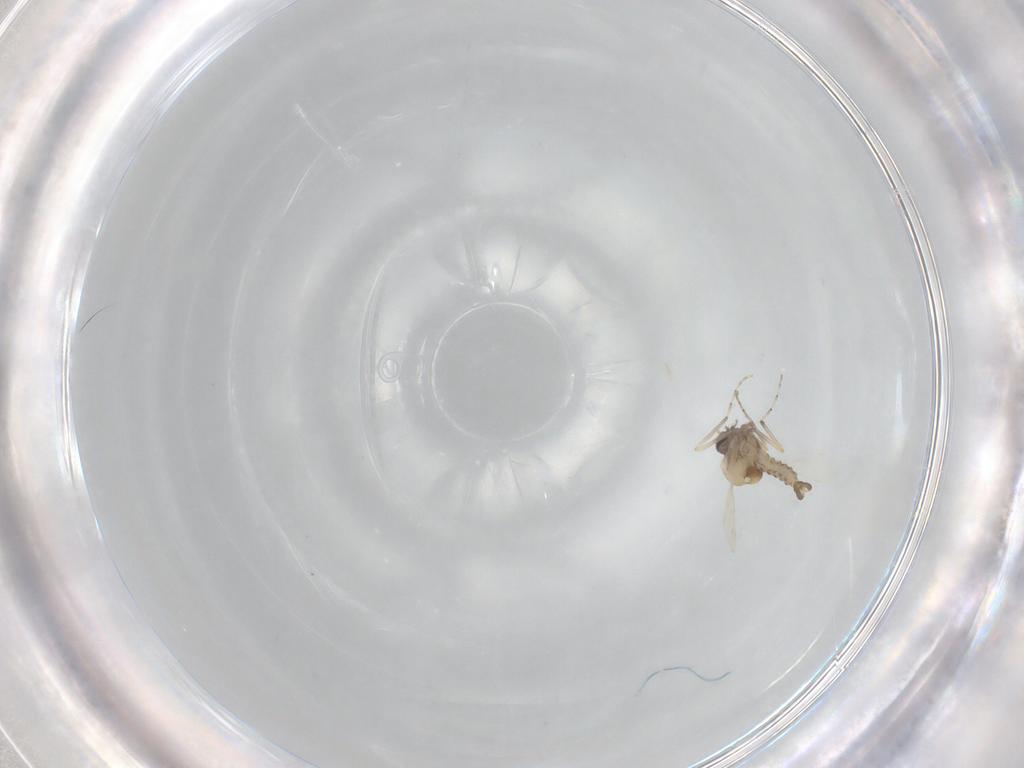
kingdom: Animalia
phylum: Arthropoda
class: Insecta
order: Diptera
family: Ceratopogonidae
